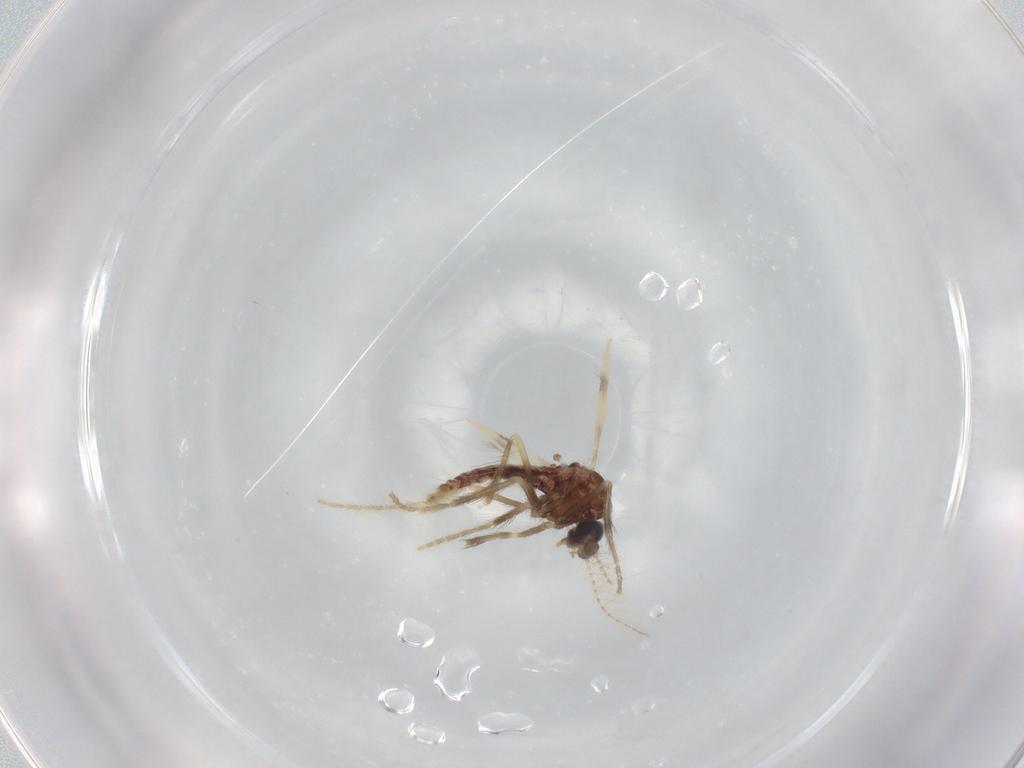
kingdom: Animalia
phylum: Arthropoda
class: Insecta
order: Diptera
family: Corethrellidae
